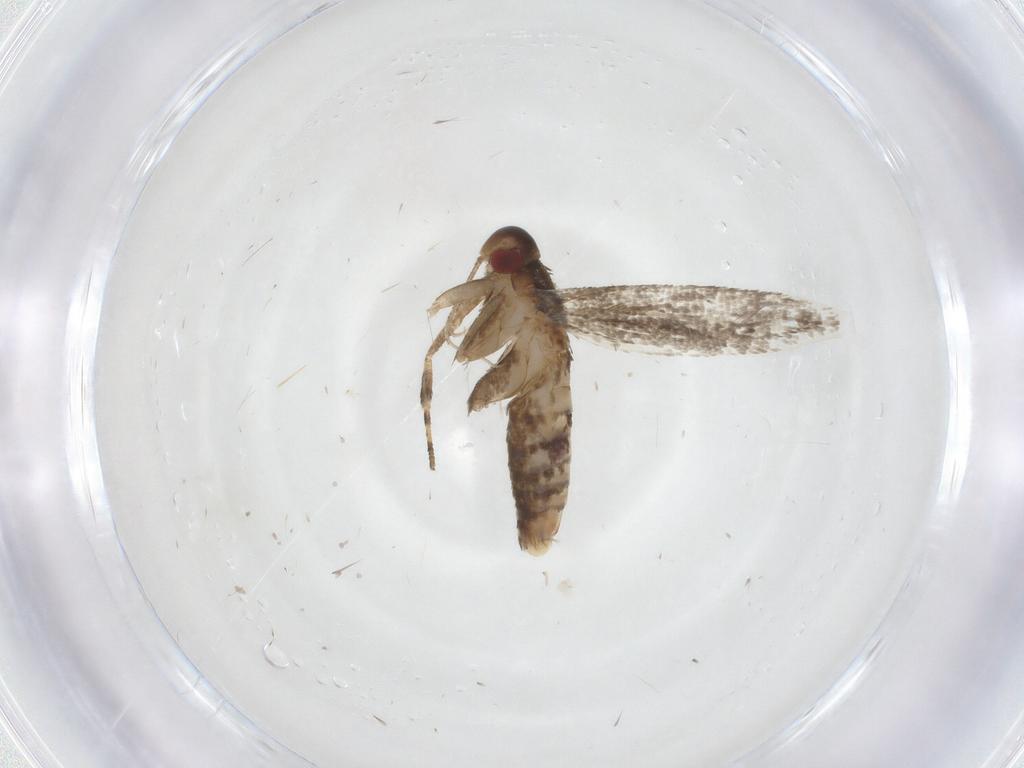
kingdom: Animalia
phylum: Arthropoda
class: Insecta
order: Lepidoptera
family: Cosmopterigidae
